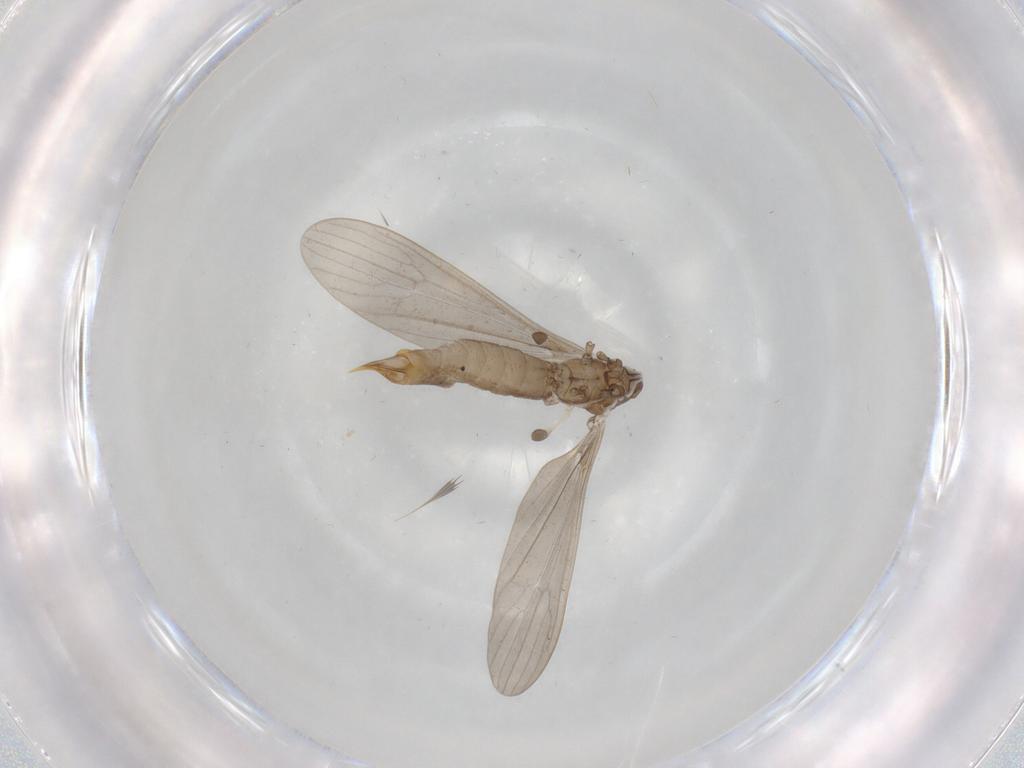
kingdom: Animalia
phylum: Arthropoda
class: Insecta
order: Diptera
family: Limoniidae
